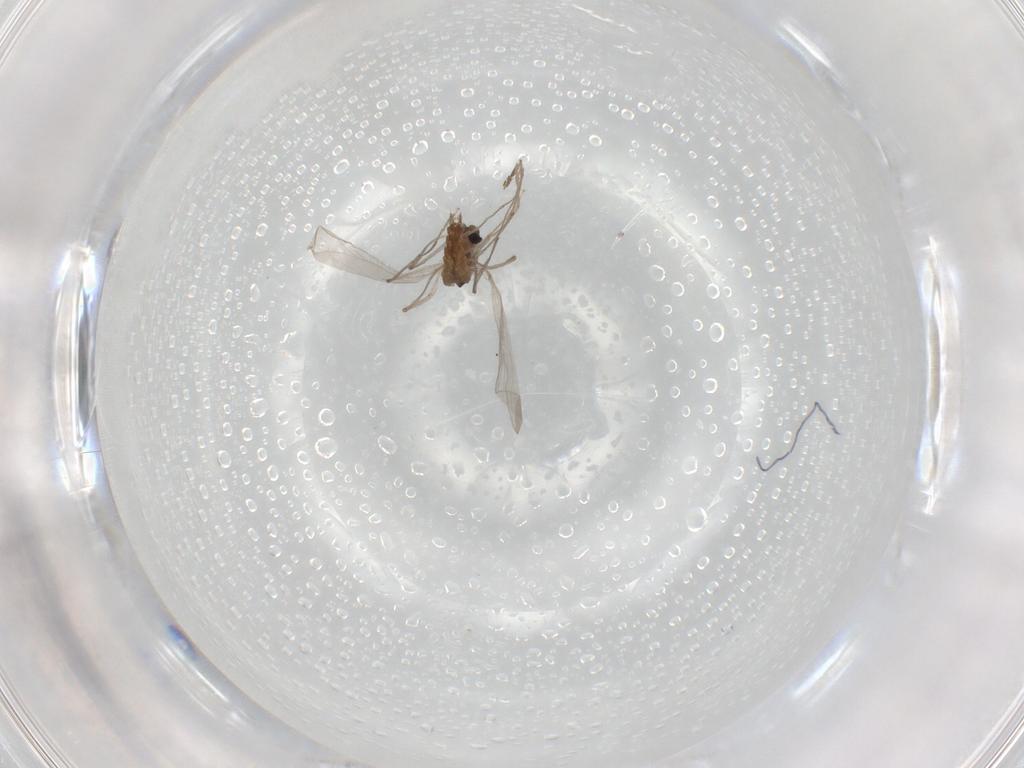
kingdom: Animalia
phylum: Arthropoda
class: Insecta
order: Diptera
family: Chironomidae
